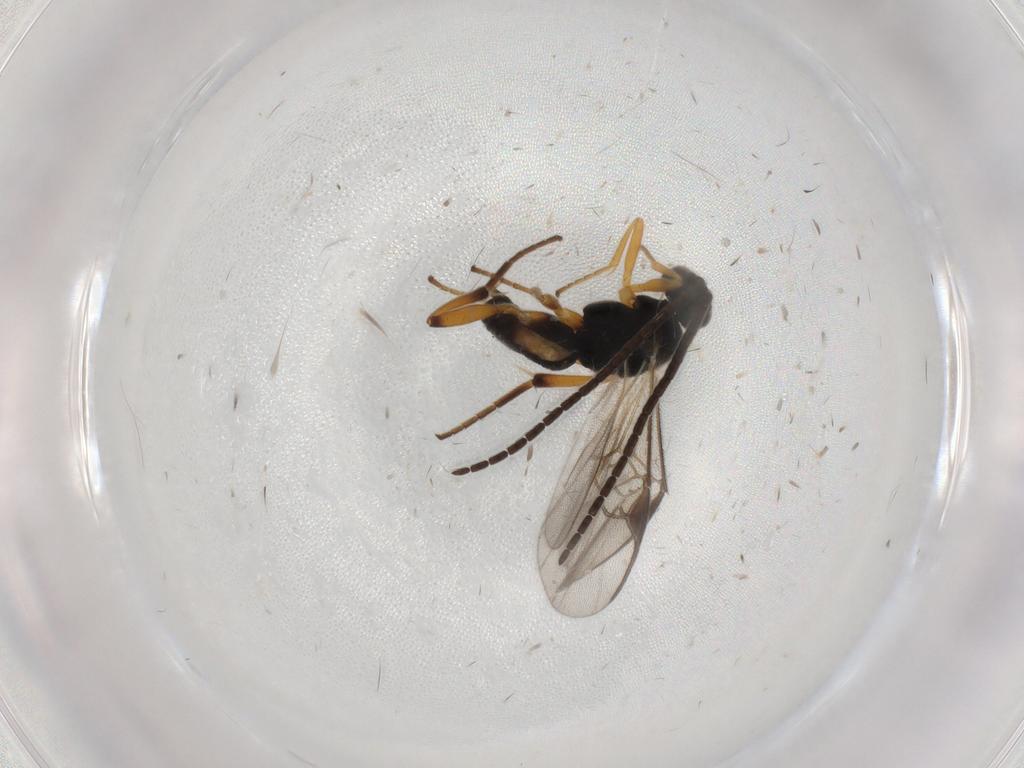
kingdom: Animalia
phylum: Arthropoda
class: Insecta
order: Hymenoptera
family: Braconidae
